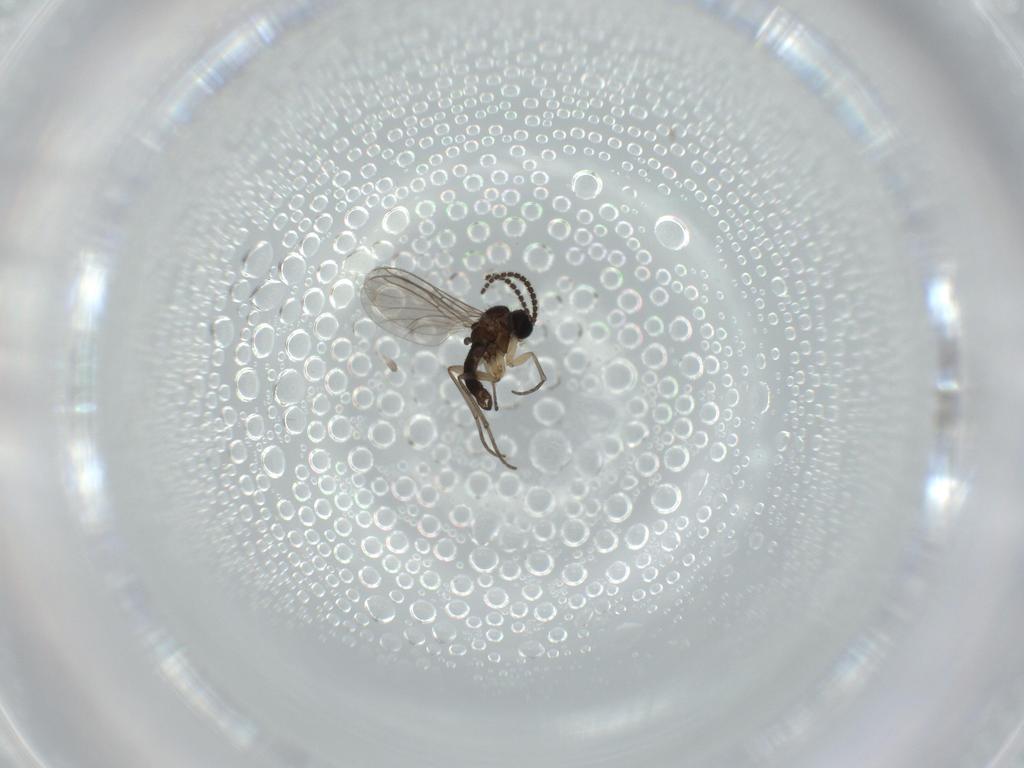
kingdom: Animalia
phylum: Arthropoda
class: Insecta
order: Diptera
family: Sciaridae
